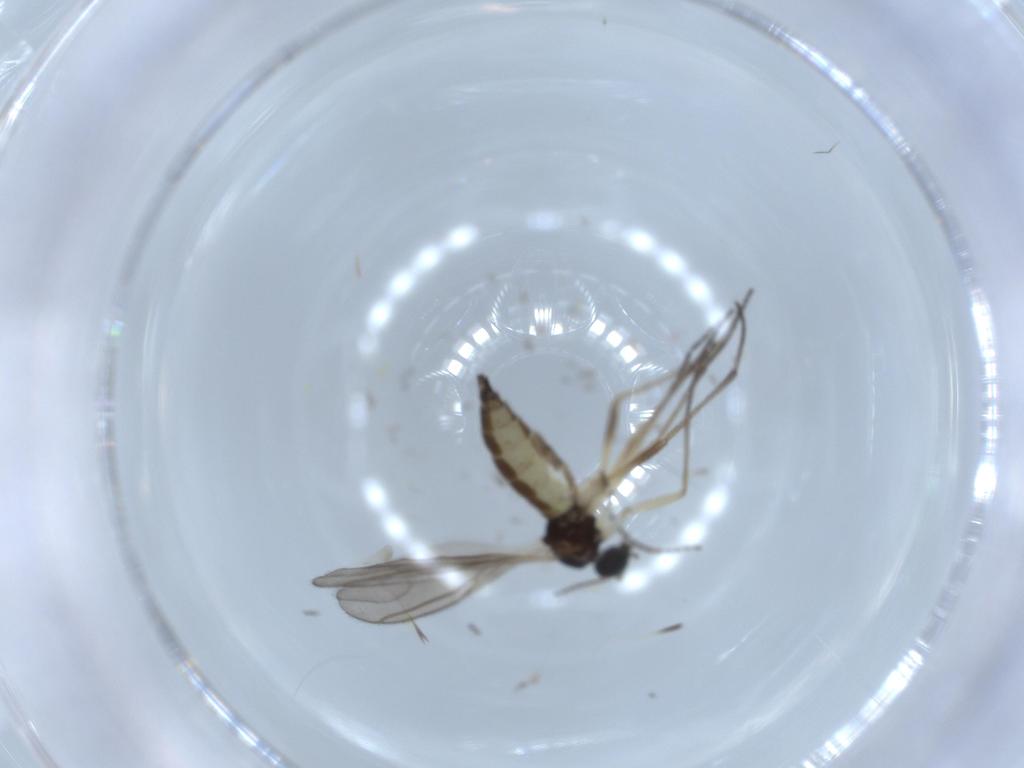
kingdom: Animalia
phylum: Arthropoda
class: Insecta
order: Diptera
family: Sciaridae
